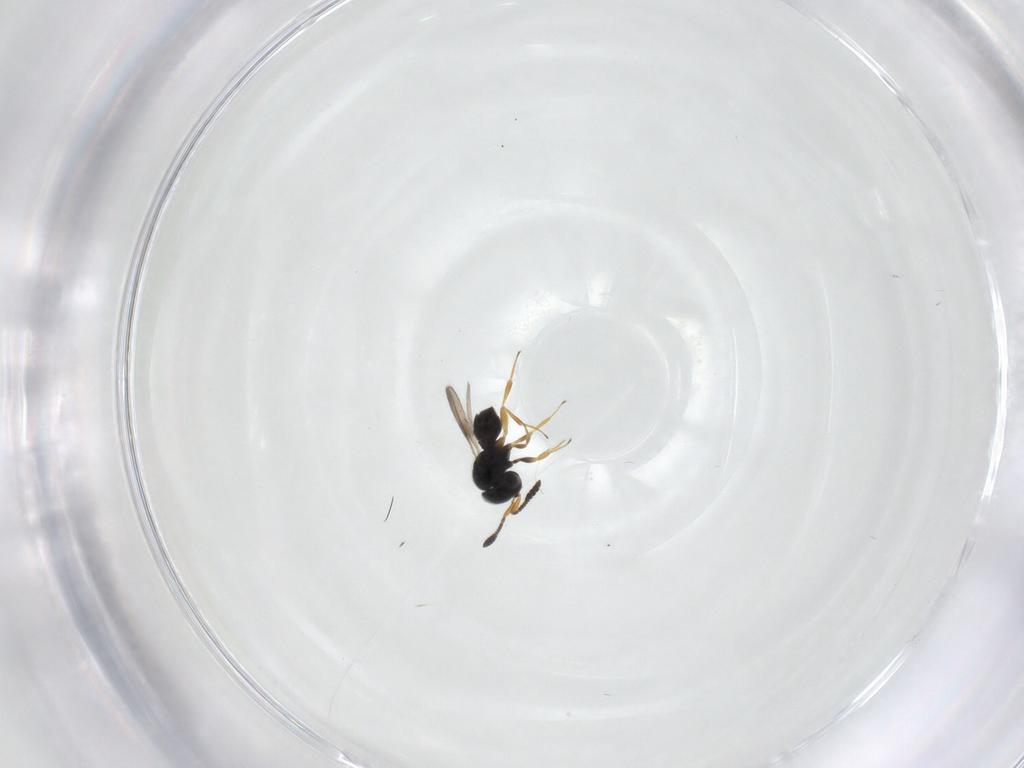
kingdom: Animalia
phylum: Arthropoda
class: Insecta
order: Hymenoptera
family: Scelionidae
